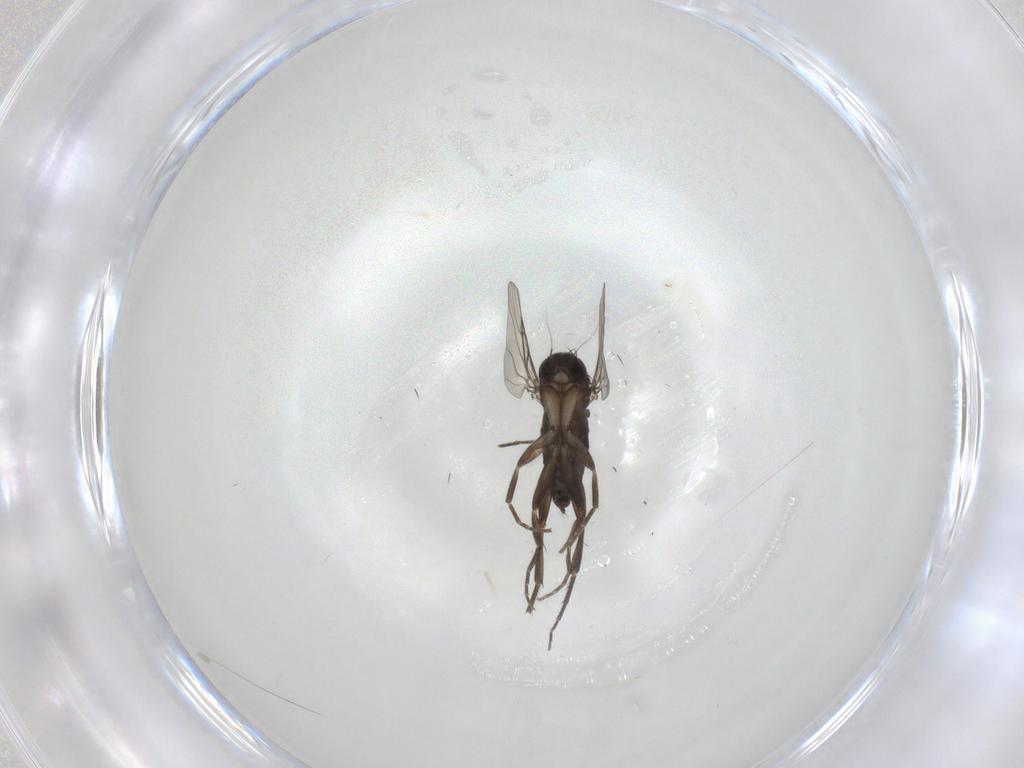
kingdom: Animalia
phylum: Arthropoda
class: Insecta
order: Diptera
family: Phoridae
